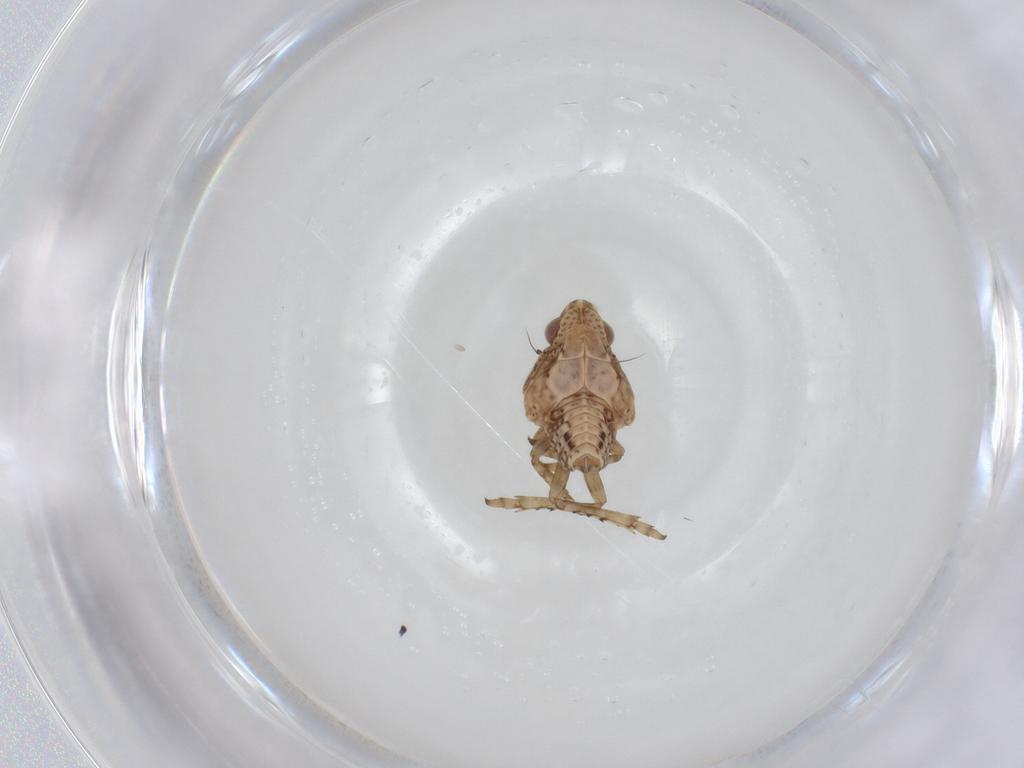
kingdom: Animalia
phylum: Arthropoda
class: Insecta
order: Hemiptera
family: Tropiduchidae
